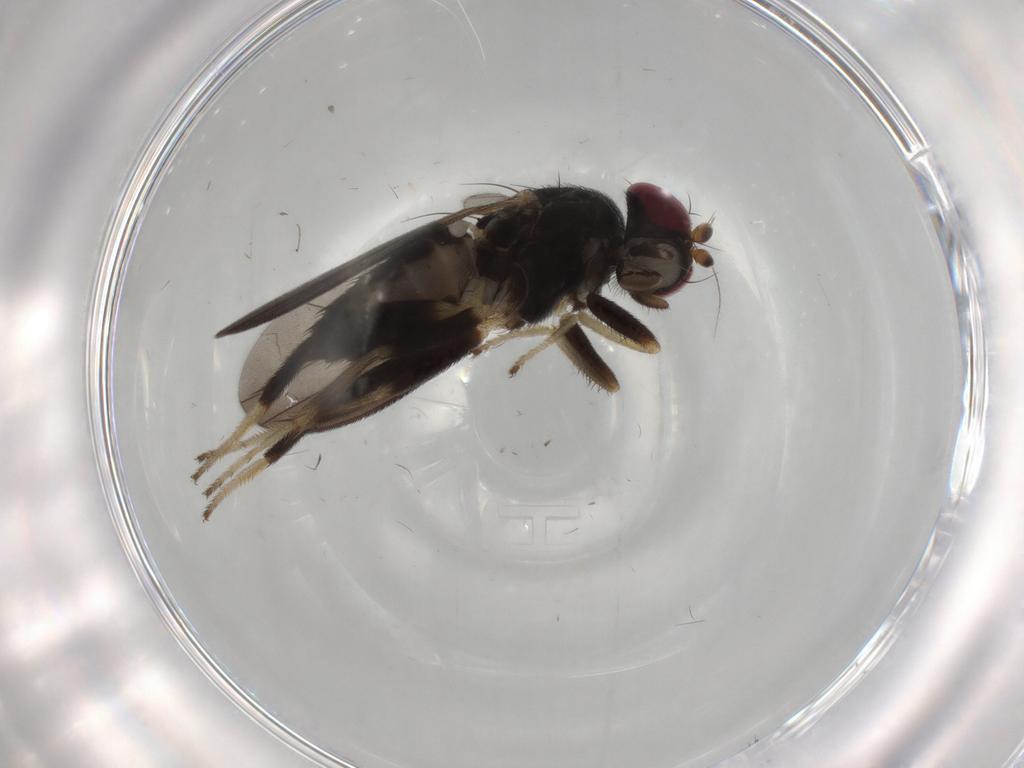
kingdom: Animalia
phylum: Arthropoda
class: Insecta
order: Diptera
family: Clusiidae
